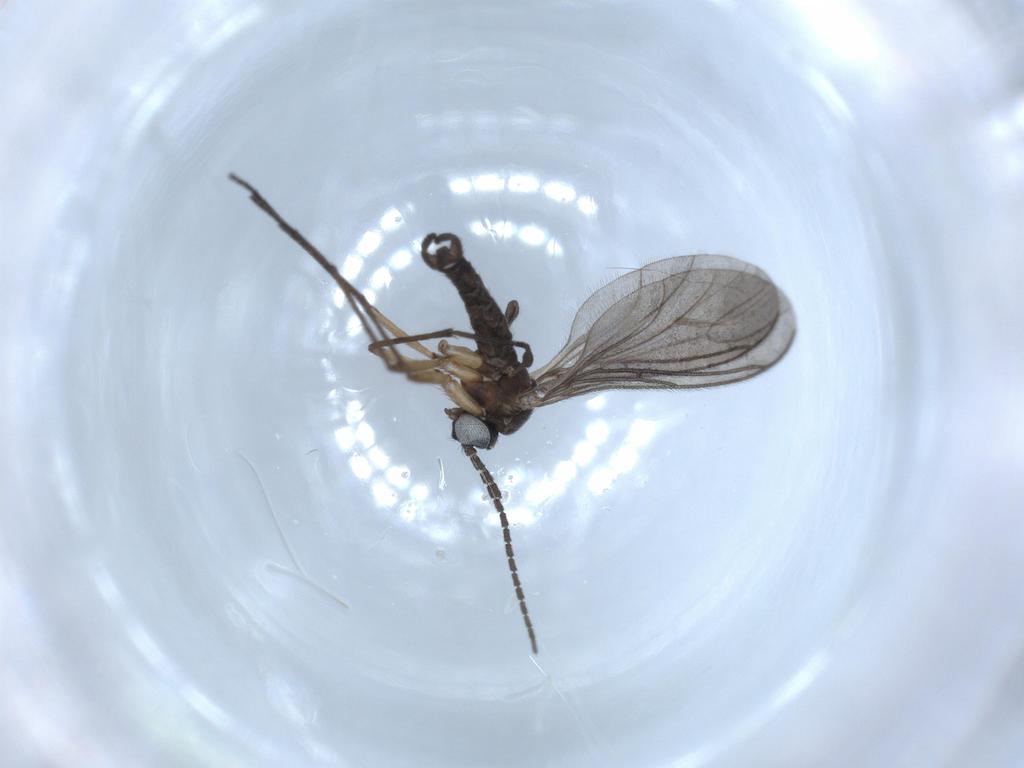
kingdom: Animalia
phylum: Arthropoda
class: Insecta
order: Diptera
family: Sciaridae
